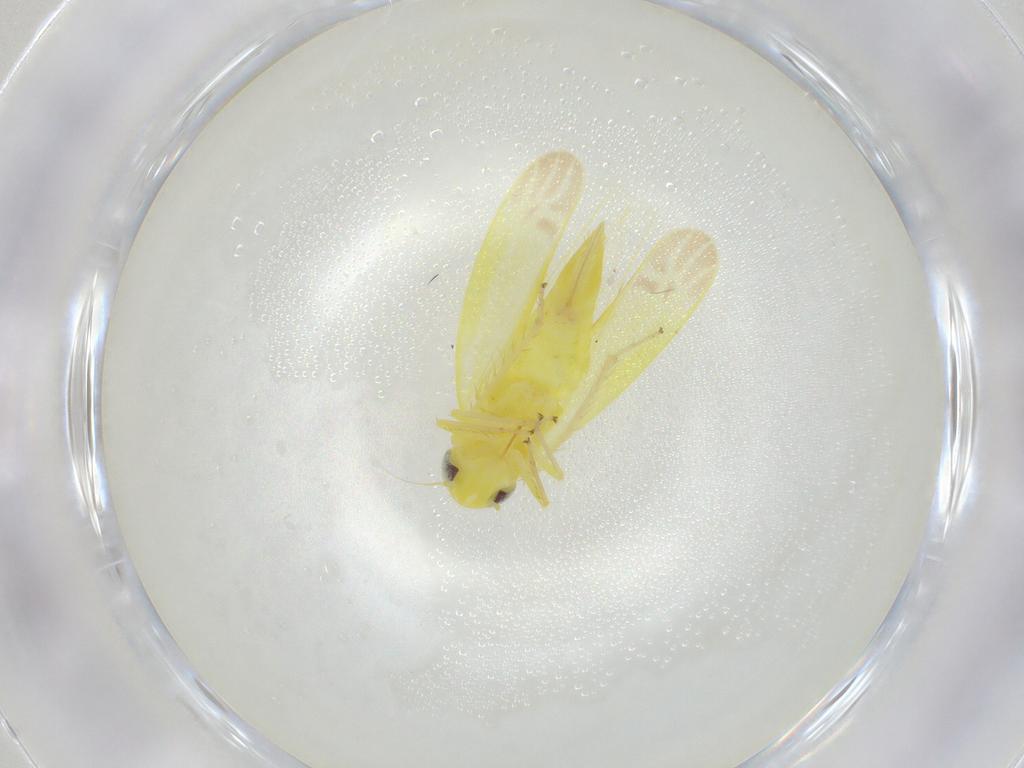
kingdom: Animalia
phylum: Arthropoda
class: Insecta
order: Hemiptera
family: Cicadellidae
